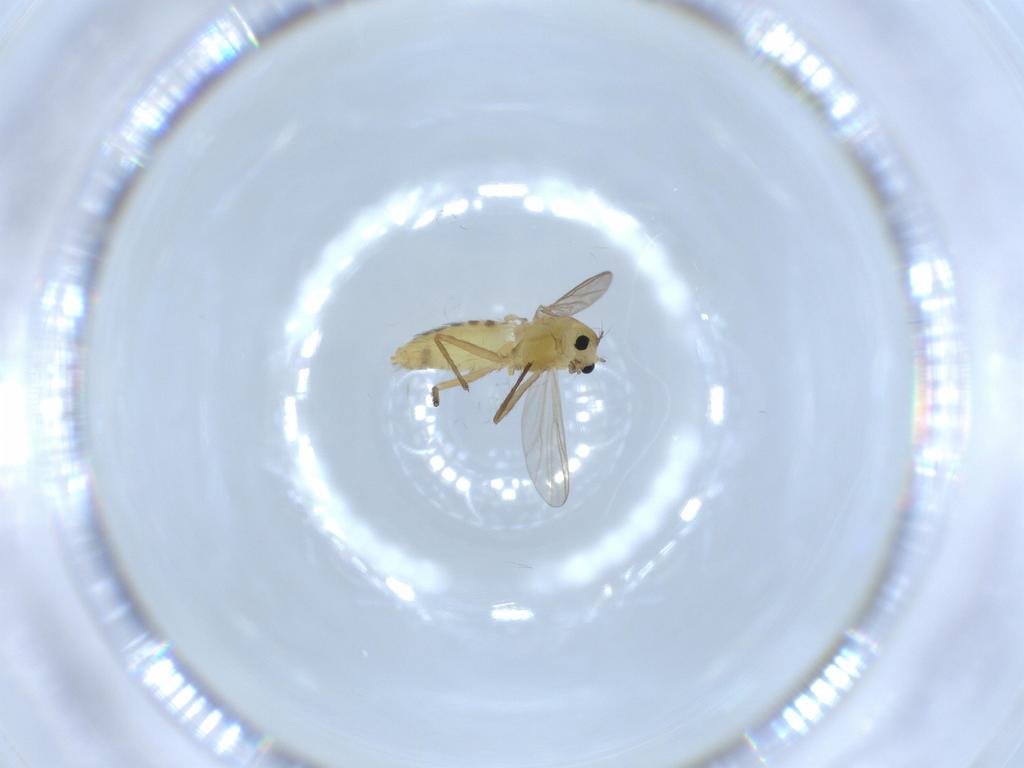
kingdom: Animalia
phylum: Arthropoda
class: Insecta
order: Diptera
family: Chironomidae
